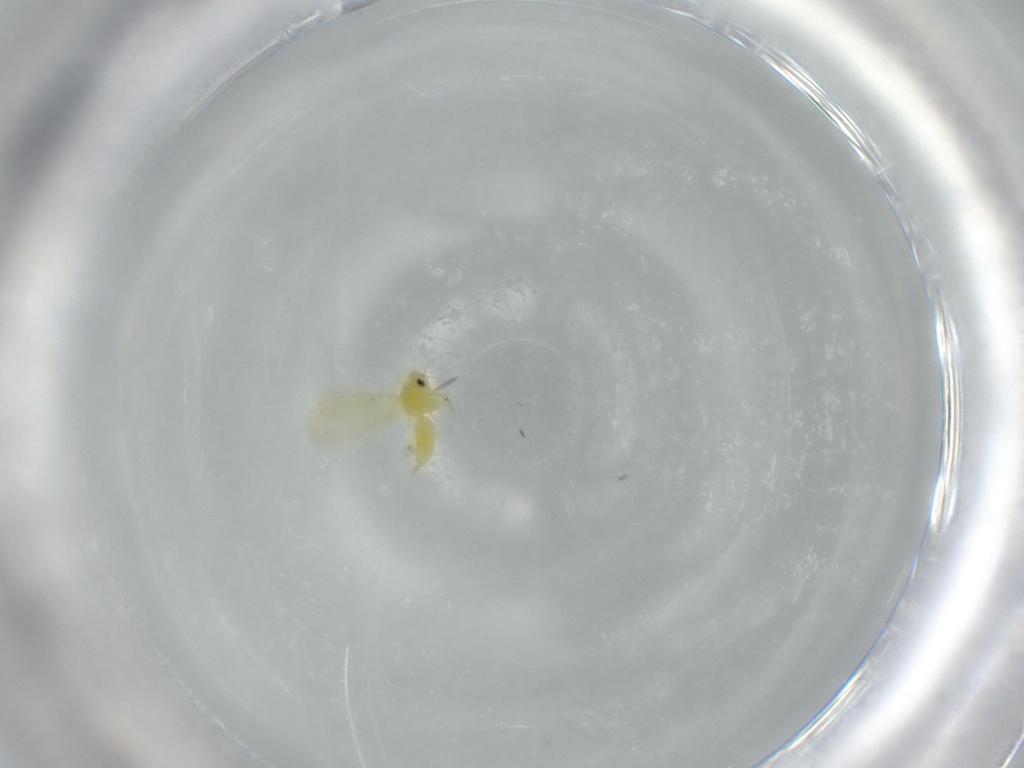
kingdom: Animalia
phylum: Arthropoda
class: Insecta
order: Hemiptera
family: Aleyrodidae
